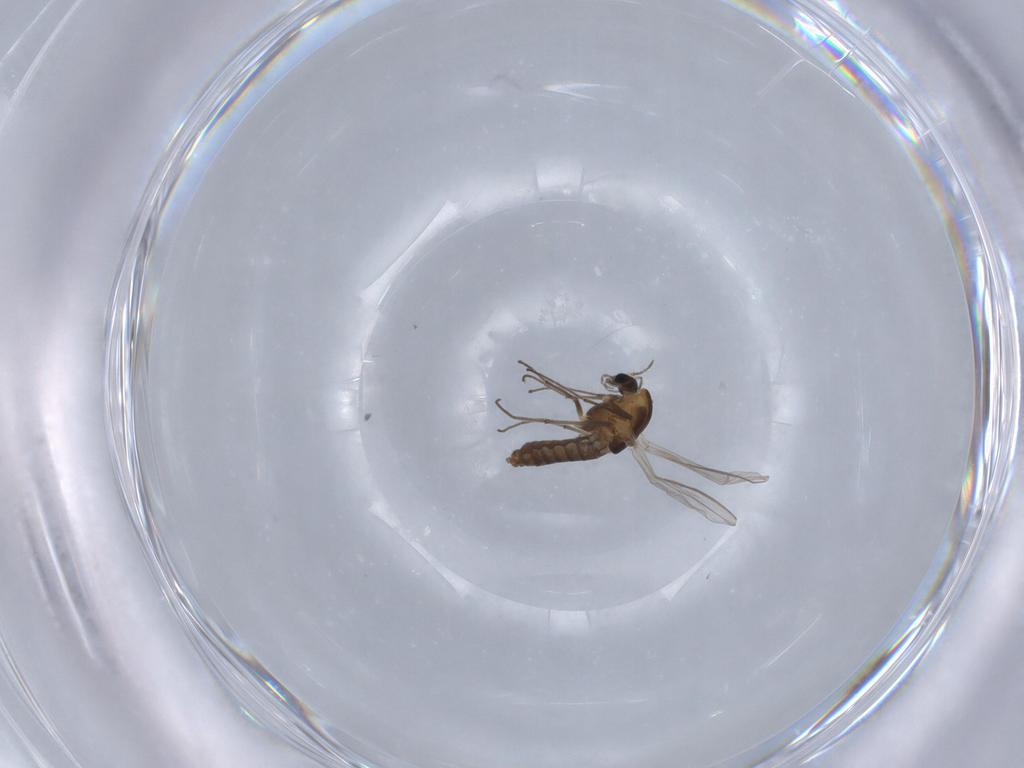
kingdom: Animalia
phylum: Arthropoda
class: Insecta
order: Diptera
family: Chironomidae
